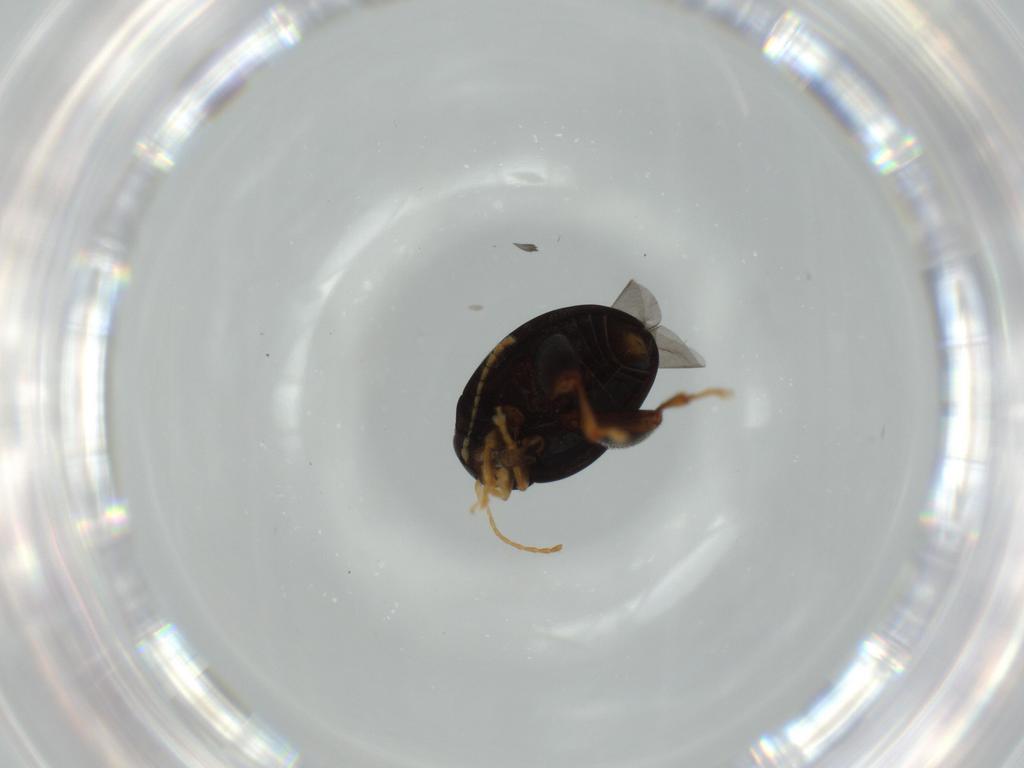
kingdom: Animalia
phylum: Arthropoda
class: Insecta
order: Coleoptera
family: Chrysomelidae
